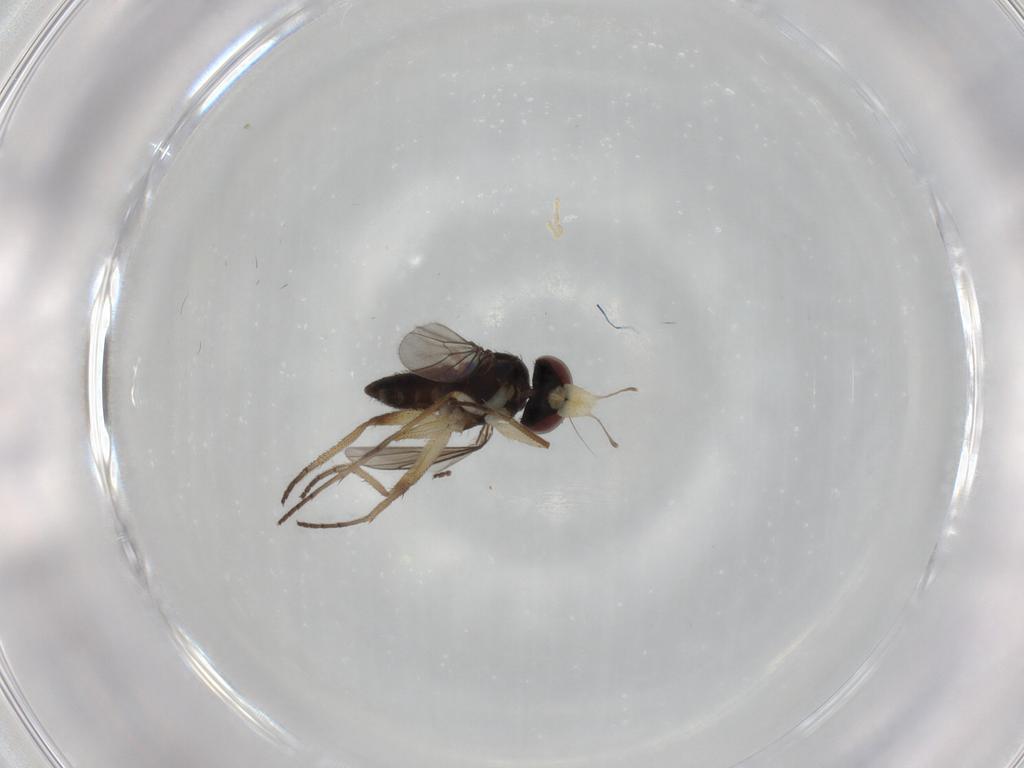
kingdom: Animalia
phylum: Arthropoda
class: Insecta
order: Diptera
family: Dolichopodidae
